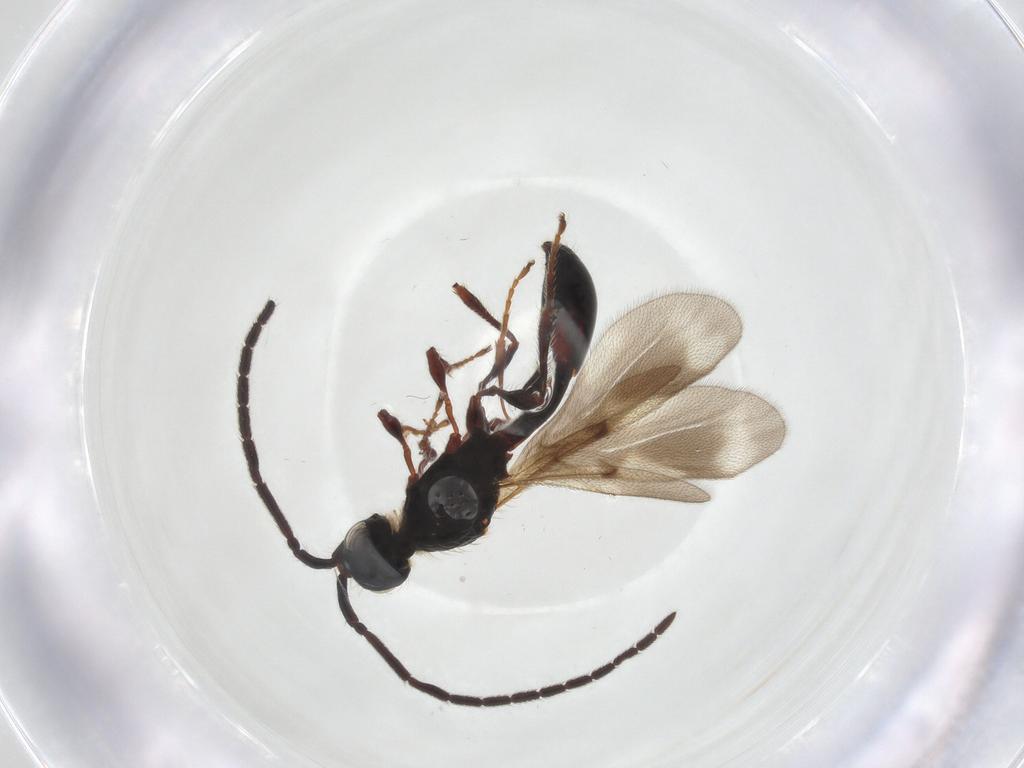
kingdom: Animalia
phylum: Arthropoda
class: Insecta
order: Hymenoptera
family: Diapriidae
